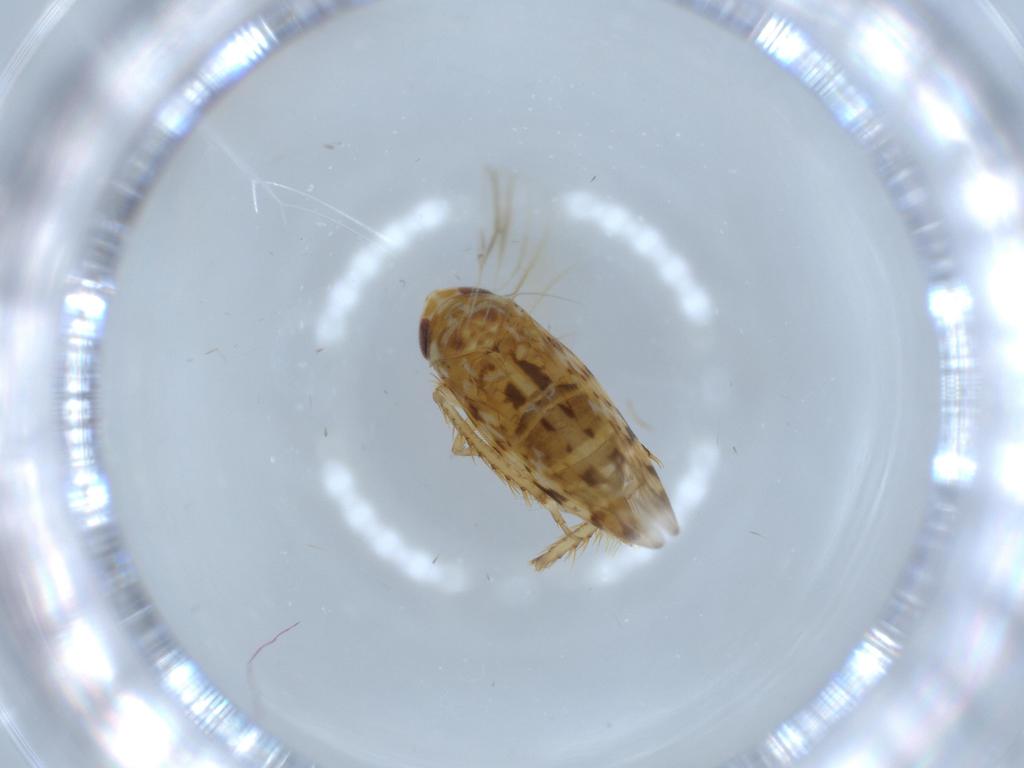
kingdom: Animalia
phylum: Arthropoda
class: Insecta
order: Hemiptera
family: Cicadellidae
